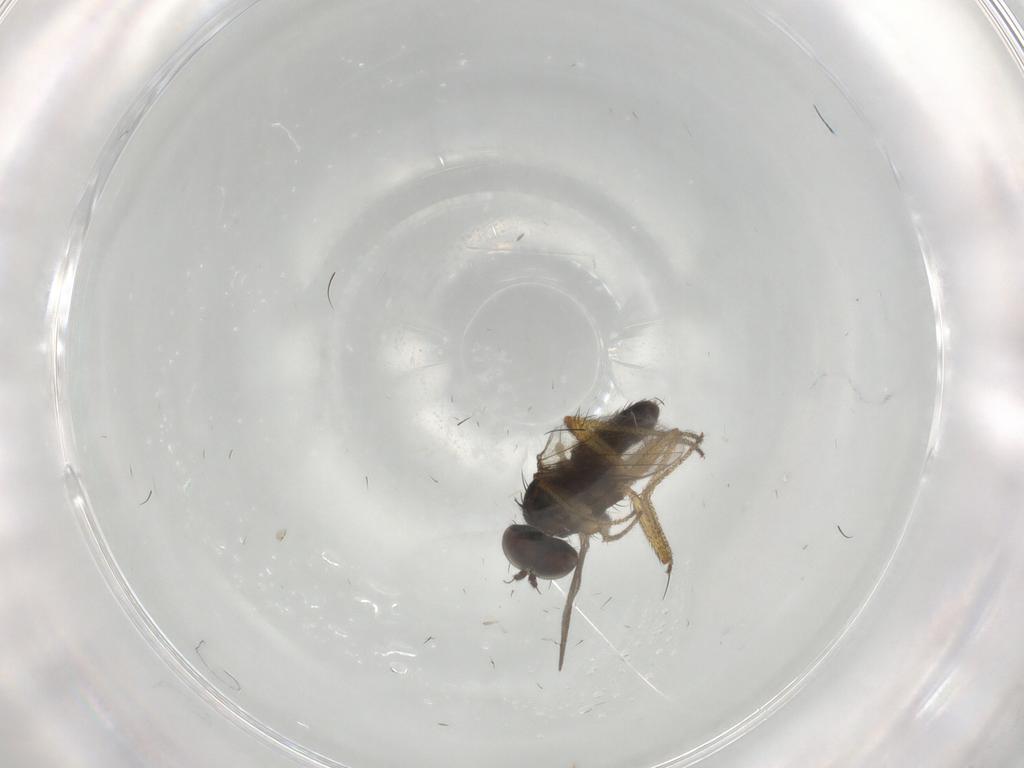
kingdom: Animalia
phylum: Arthropoda
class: Insecta
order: Diptera
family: Dolichopodidae
